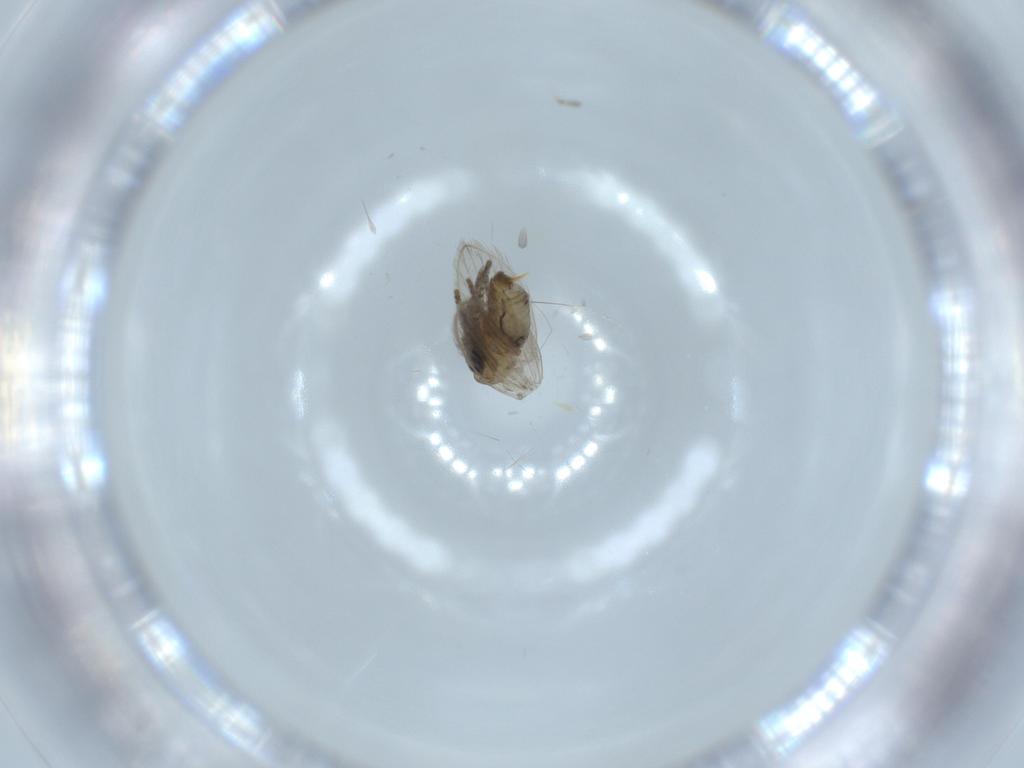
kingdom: Animalia
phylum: Arthropoda
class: Insecta
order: Diptera
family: Psychodidae
